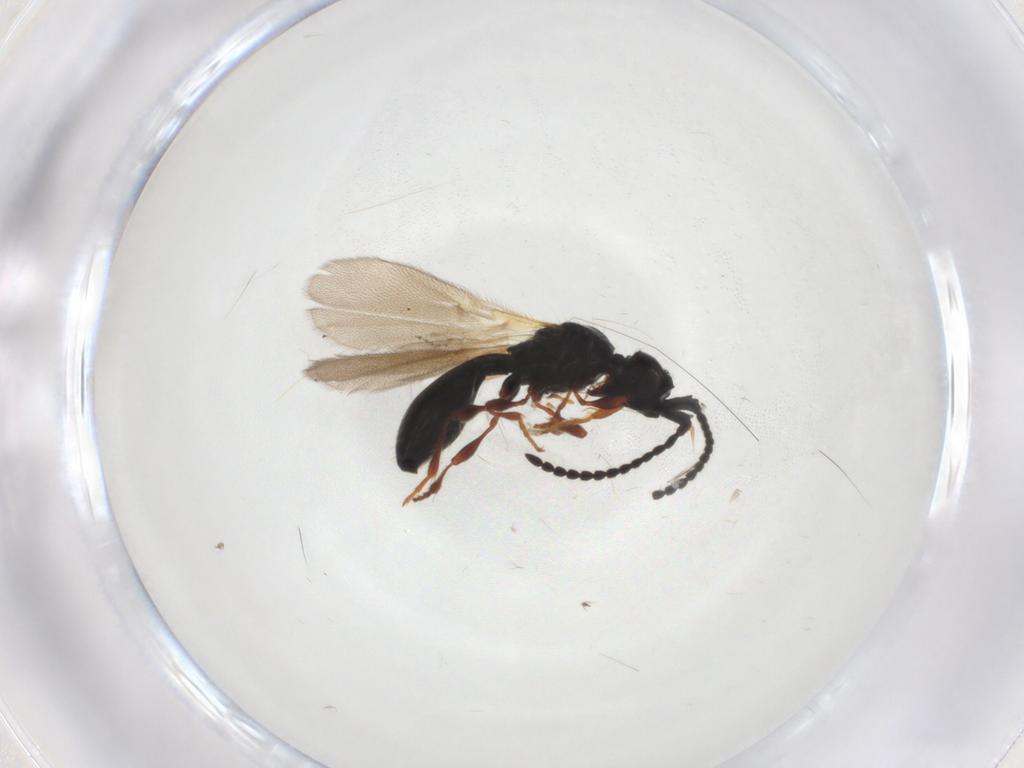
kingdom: Animalia
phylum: Arthropoda
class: Insecta
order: Hymenoptera
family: Diapriidae
